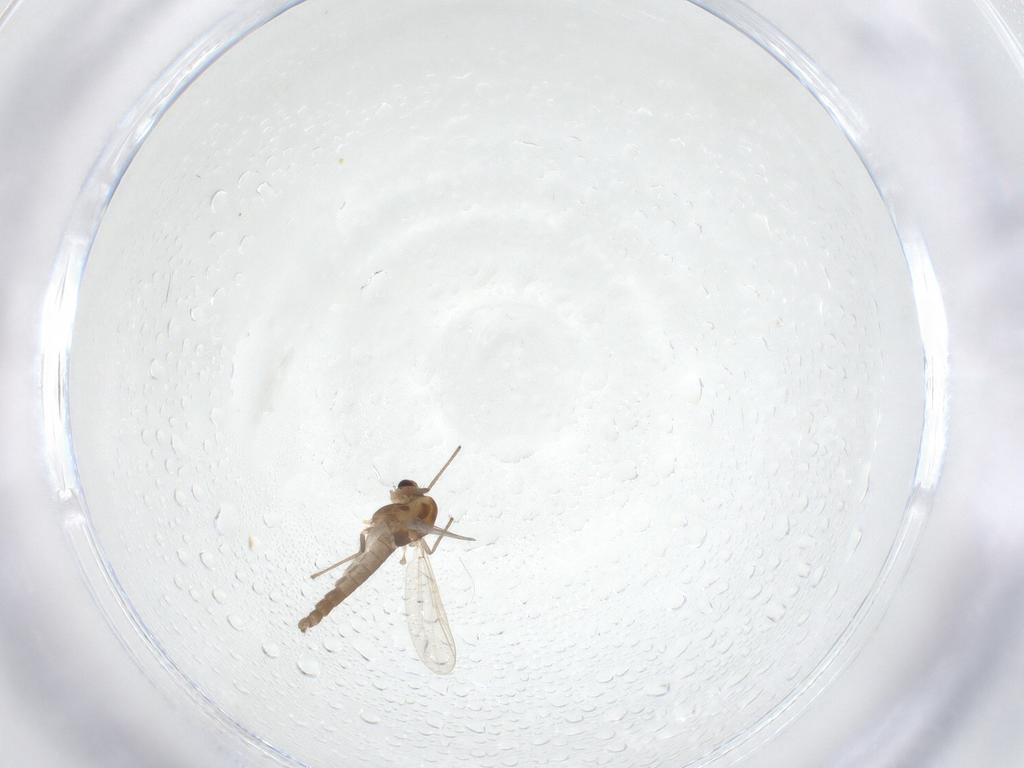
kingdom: Animalia
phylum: Arthropoda
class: Insecta
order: Diptera
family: Chironomidae
